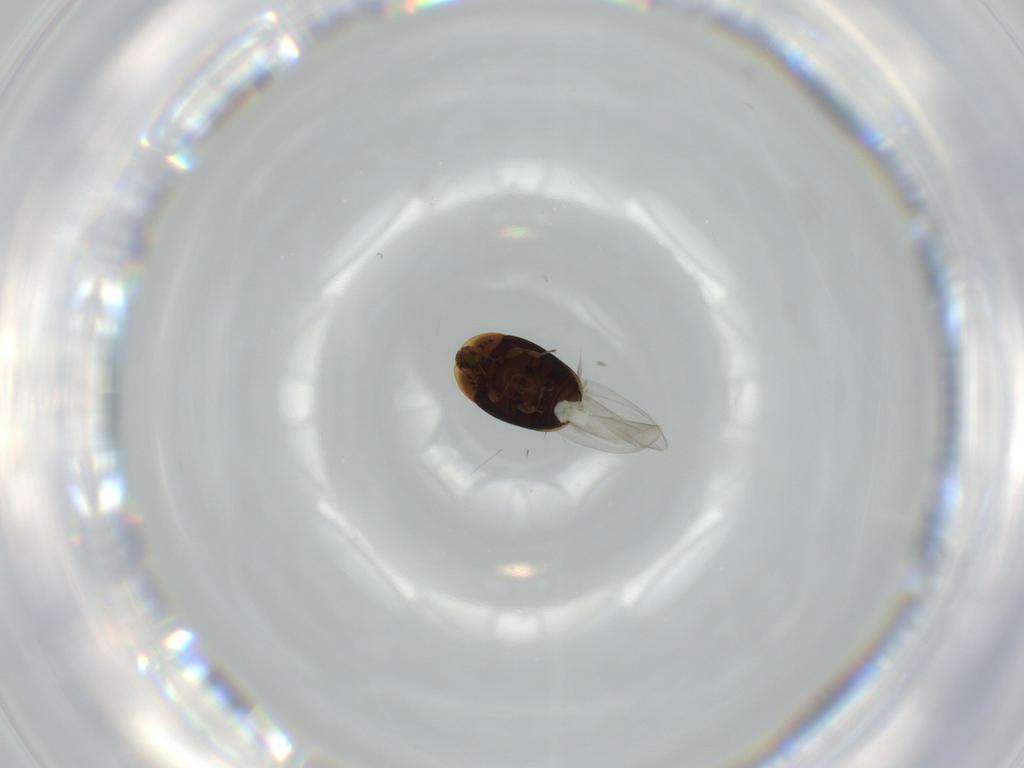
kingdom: Animalia
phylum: Arthropoda
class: Insecta
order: Coleoptera
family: Corylophidae
